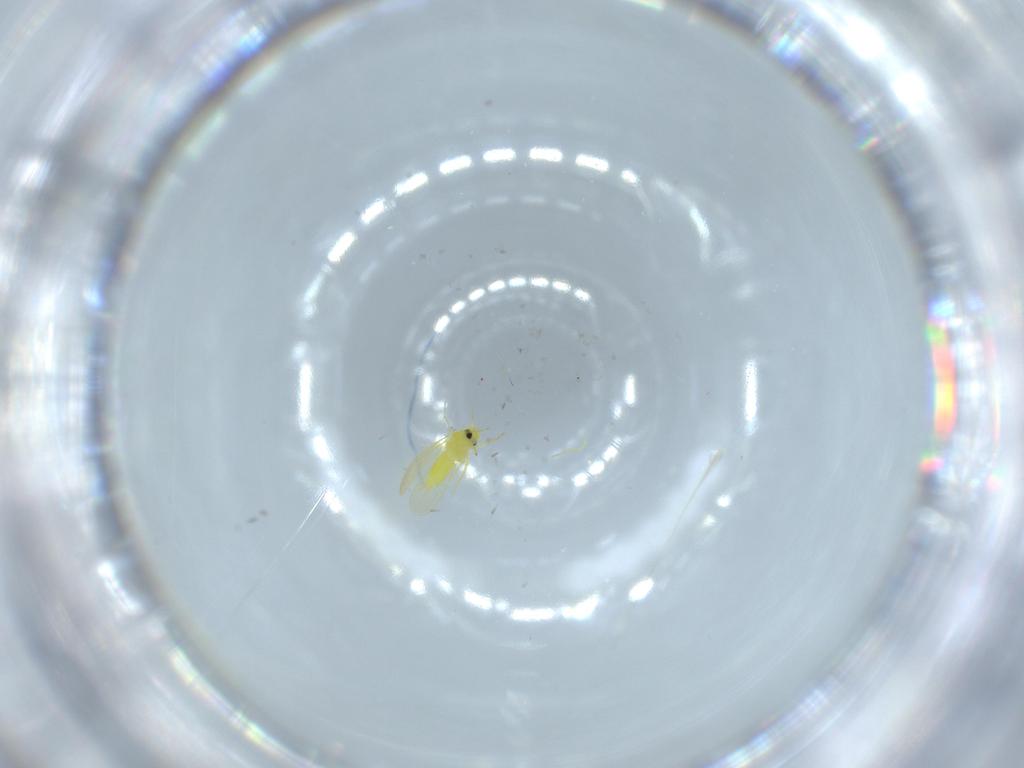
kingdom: Animalia
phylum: Arthropoda
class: Insecta
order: Hemiptera
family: Aleyrodidae
